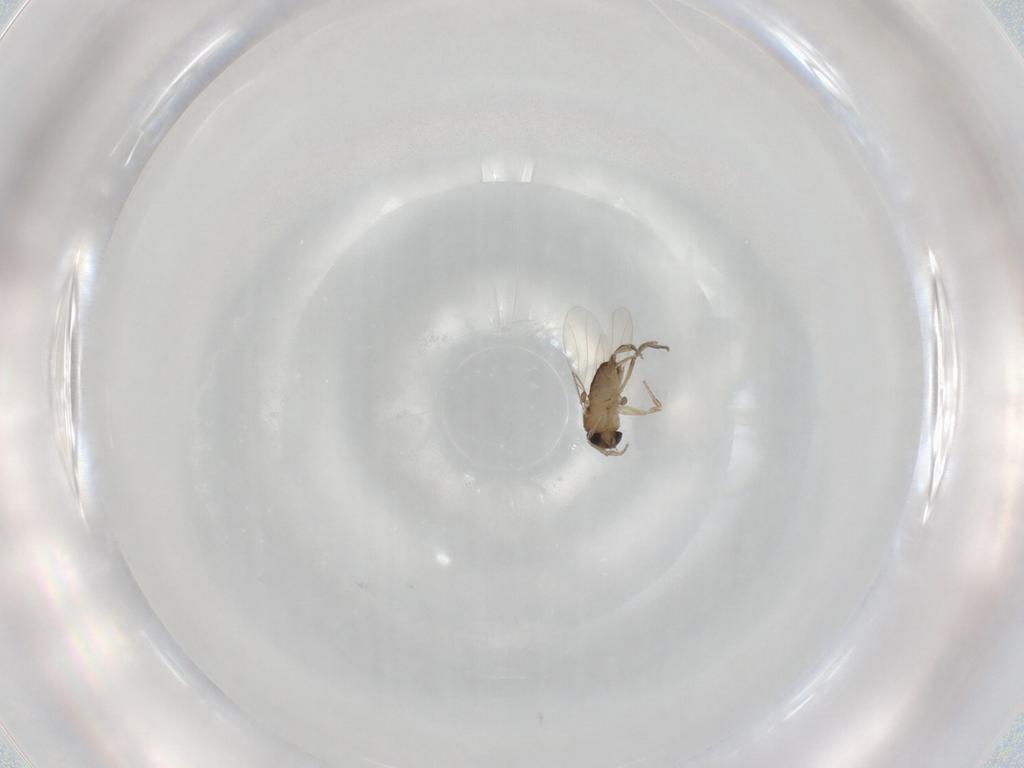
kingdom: Animalia
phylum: Arthropoda
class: Insecta
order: Diptera
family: Phoridae
